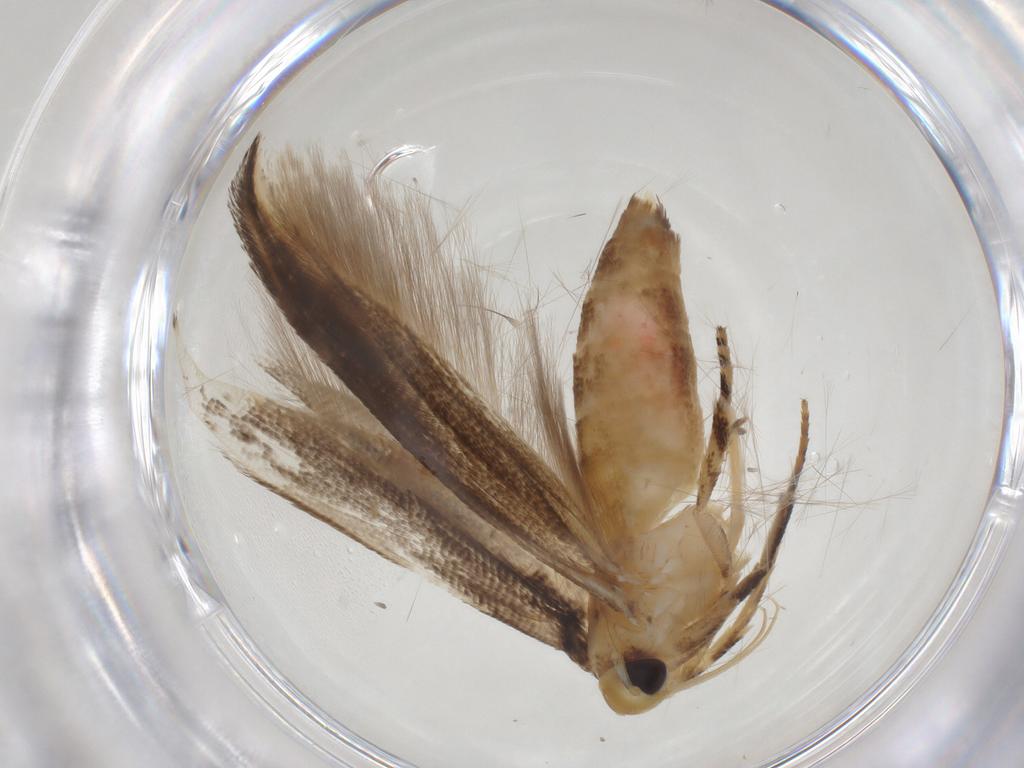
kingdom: Animalia
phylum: Arthropoda
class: Insecta
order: Lepidoptera
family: Momphidae
